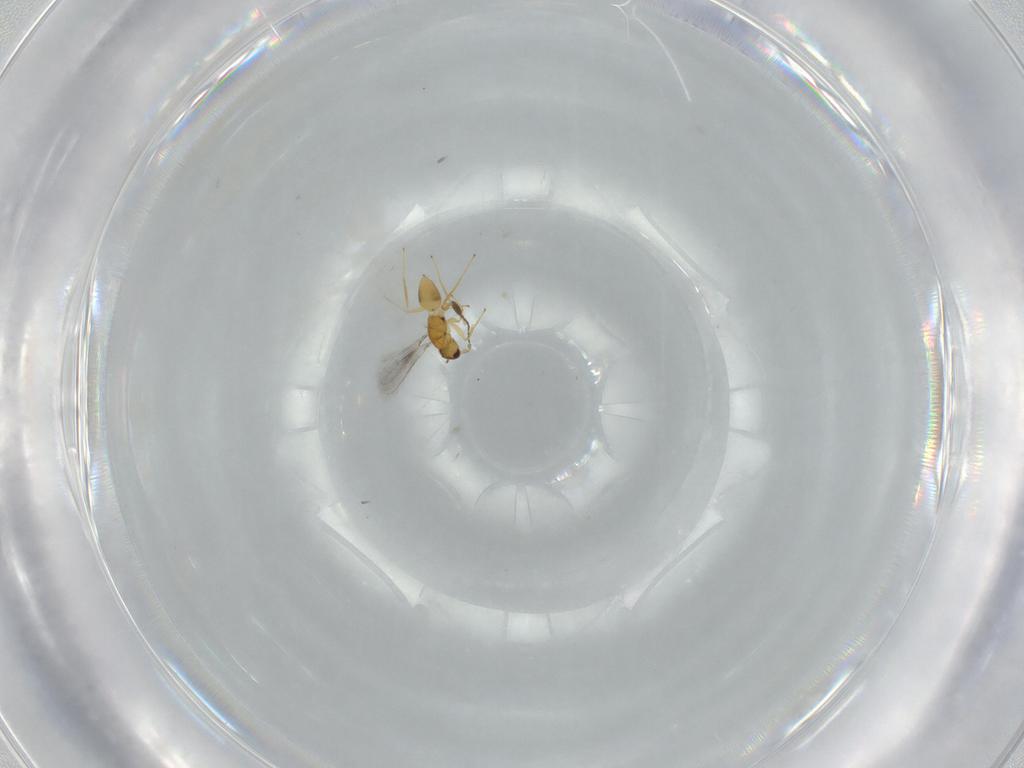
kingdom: Animalia
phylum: Arthropoda
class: Insecta
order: Hymenoptera
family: Mymaridae
